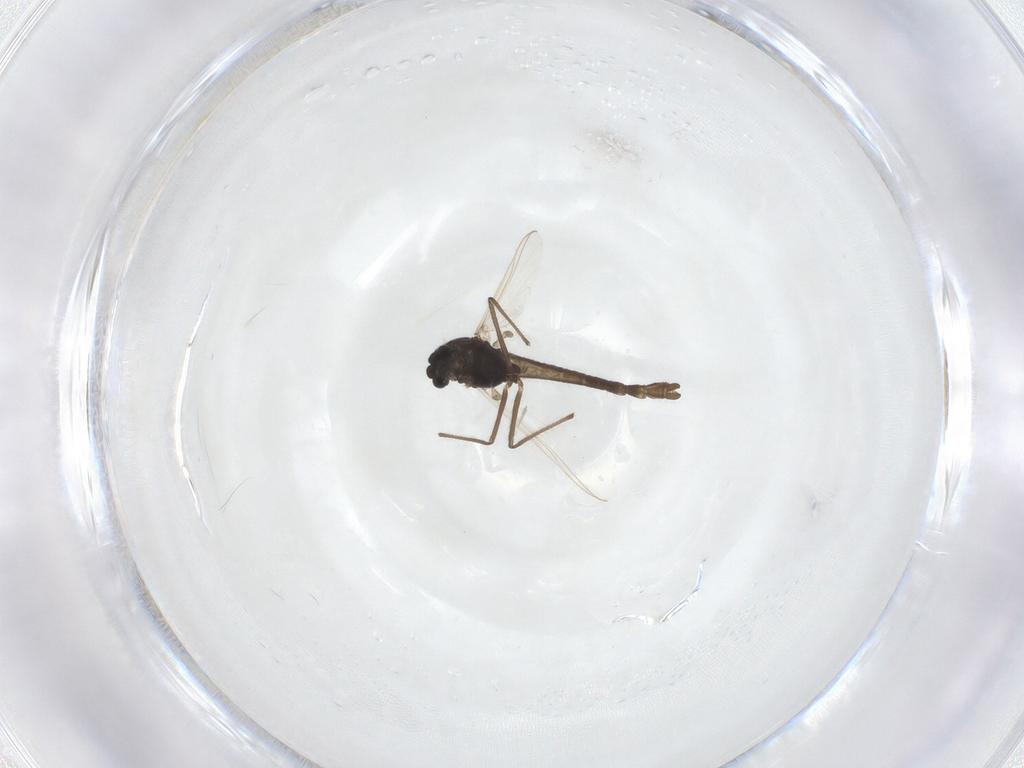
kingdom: Animalia
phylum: Arthropoda
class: Insecta
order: Diptera
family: Chironomidae
